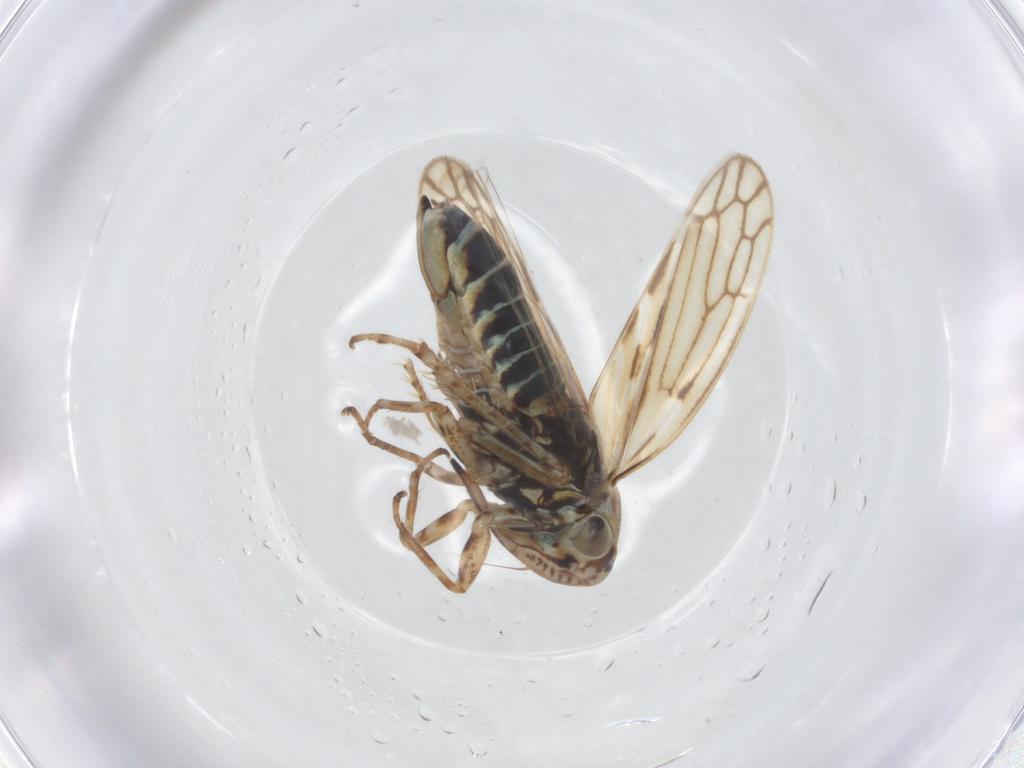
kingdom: Animalia
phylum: Arthropoda
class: Insecta
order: Hemiptera
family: Cicadellidae
